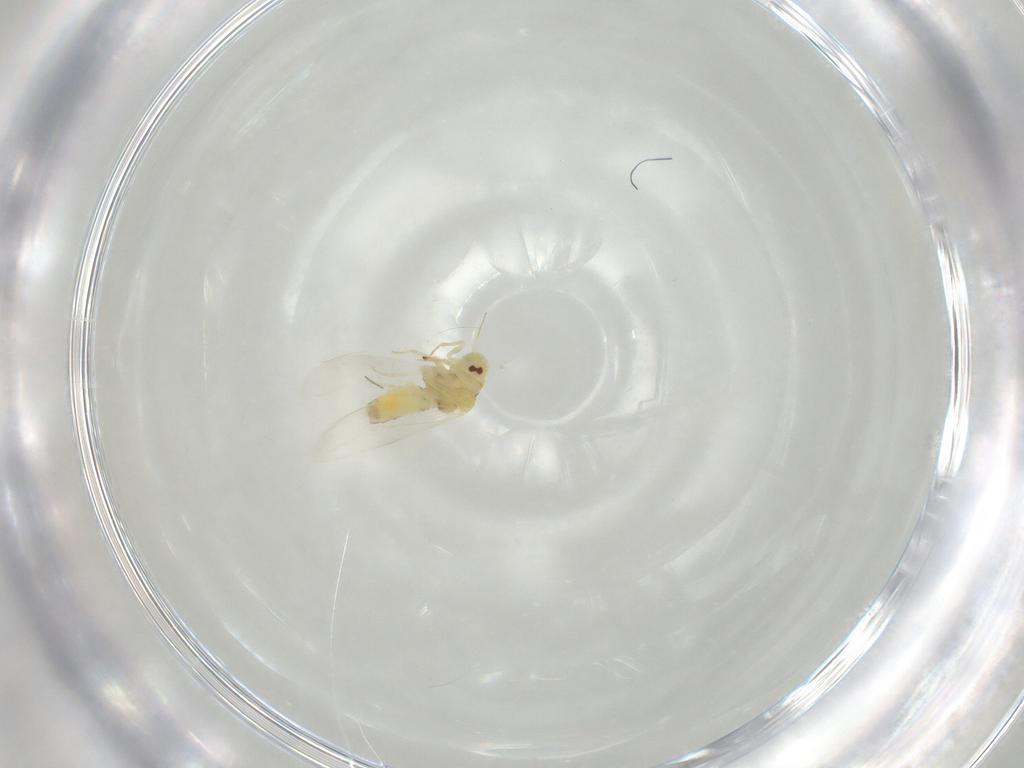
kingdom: Animalia
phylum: Arthropoda
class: Insecta
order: Hemiptera
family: Aleyrodidae
